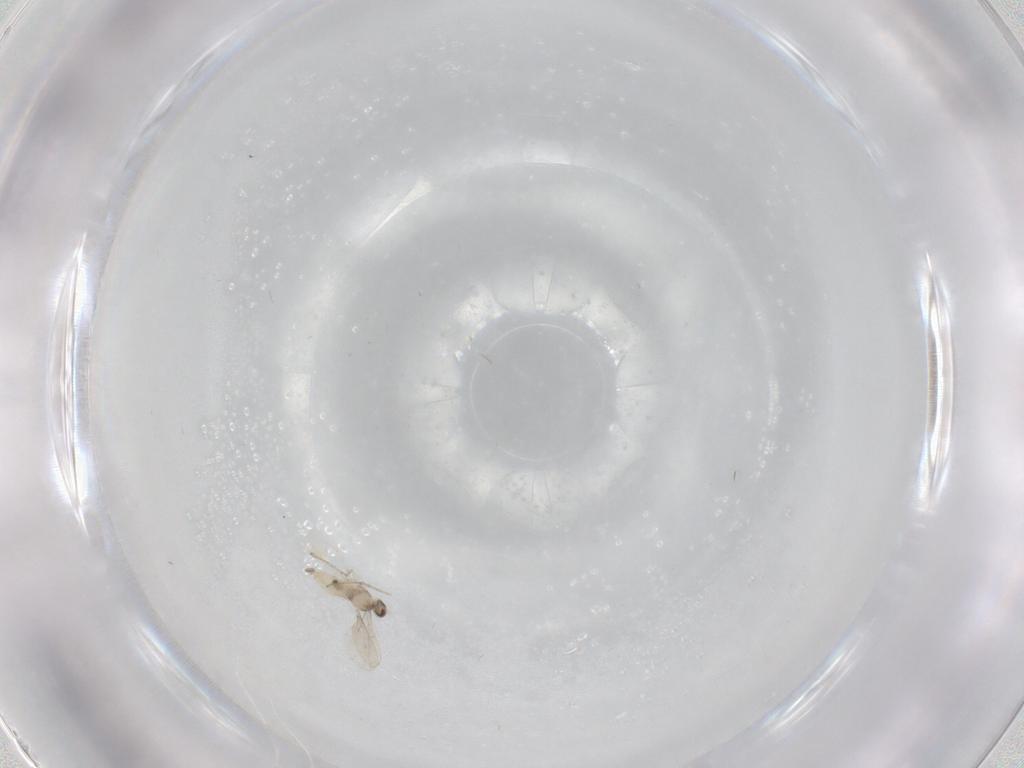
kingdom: Animalia
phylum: Arthropoda
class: Insecta
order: Diptera
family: Cecidomyiidae
